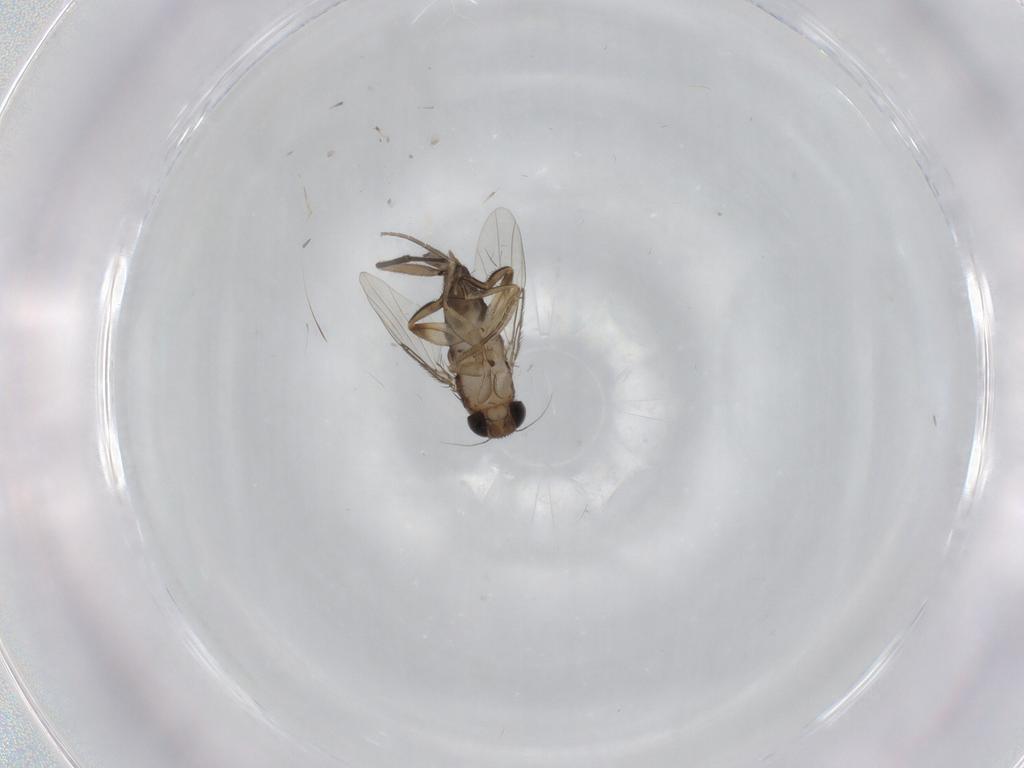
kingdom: Animalia
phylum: Arthropoda
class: Insecta
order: Diptera
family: Phoridae
